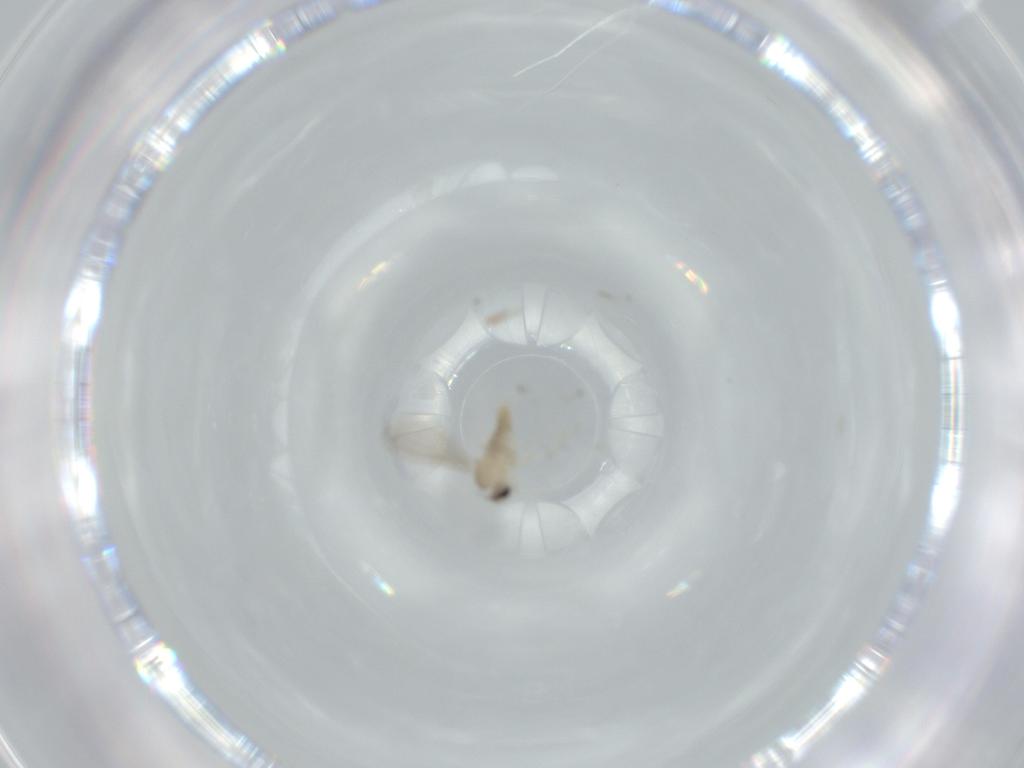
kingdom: Animalia
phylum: Arthropoda
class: Insecta
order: Diptera
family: Cecidomyiidae
